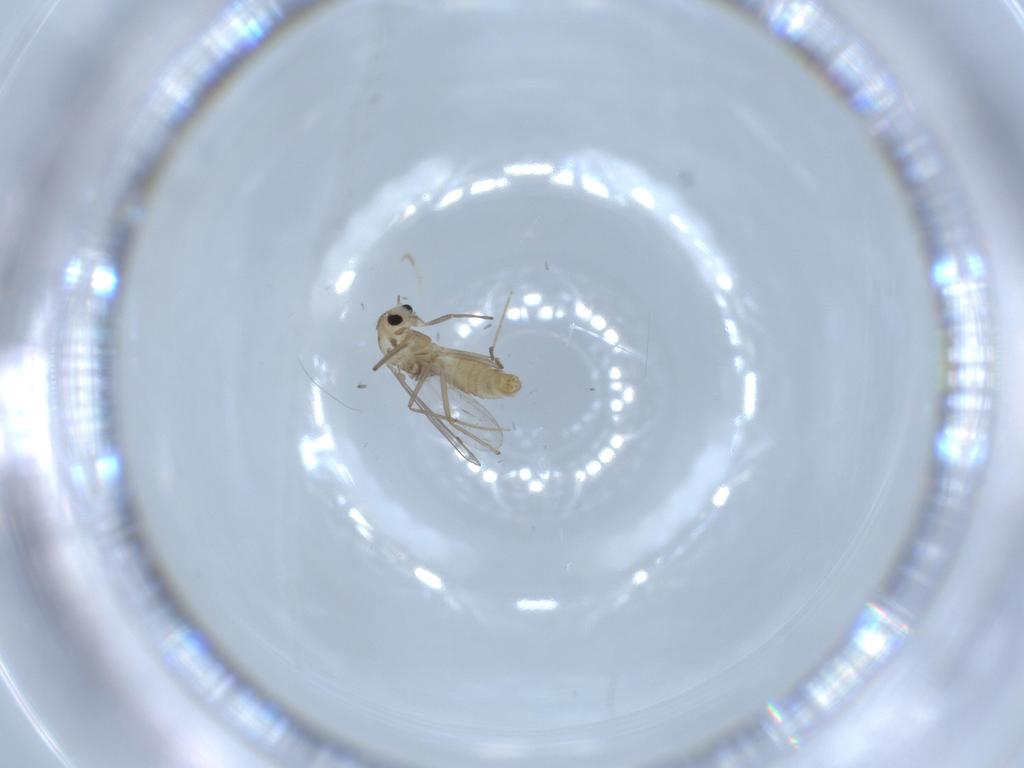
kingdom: Animalia
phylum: Arthropoda
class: Insecta
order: Diptera
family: Chironomidae
